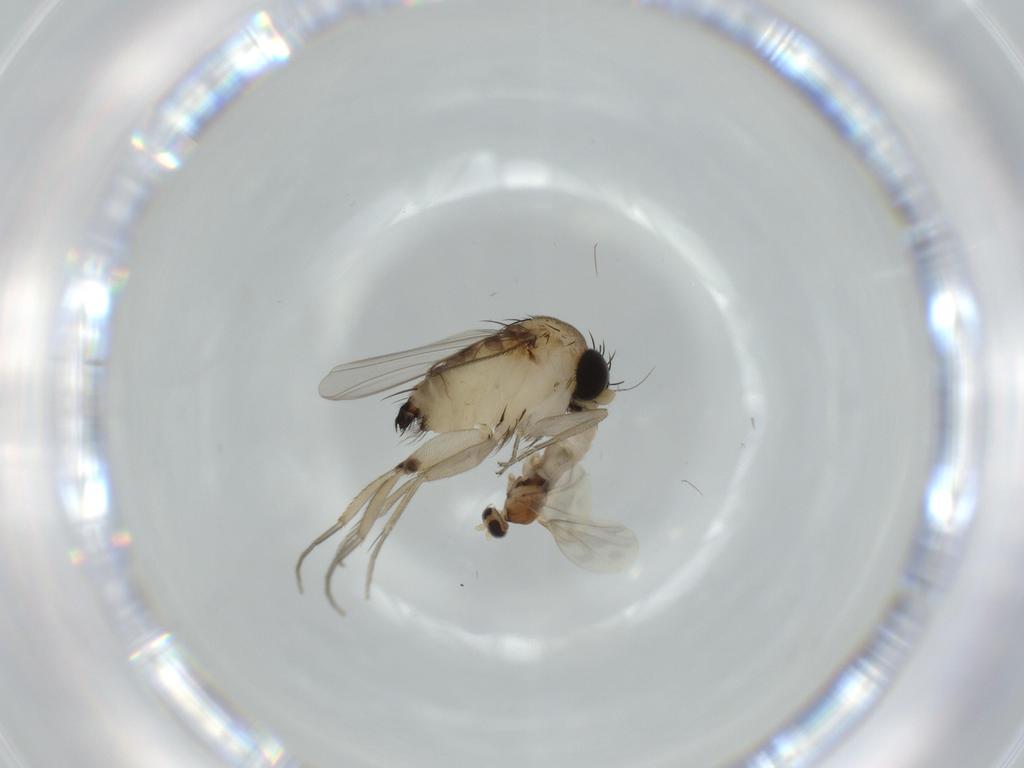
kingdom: Animalia
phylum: Arthropoda
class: Insecta
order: Diptera
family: Phoridae
